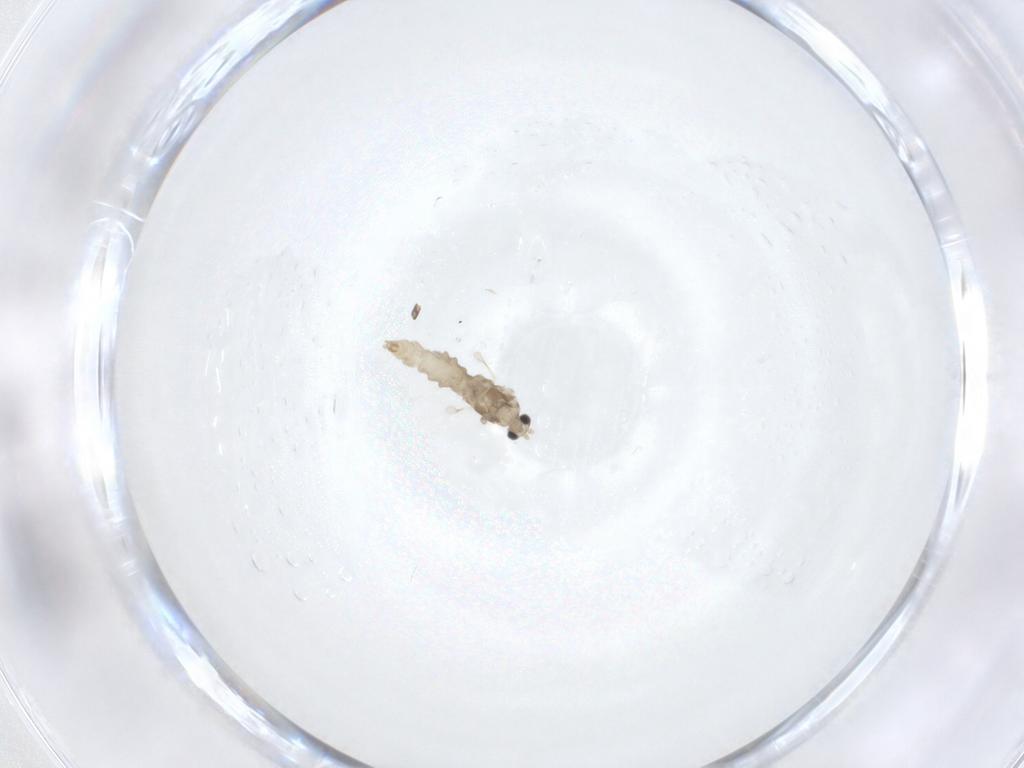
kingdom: Animalia
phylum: Arthropoda
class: Insecta
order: Diptera
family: Cecidomyiidae
